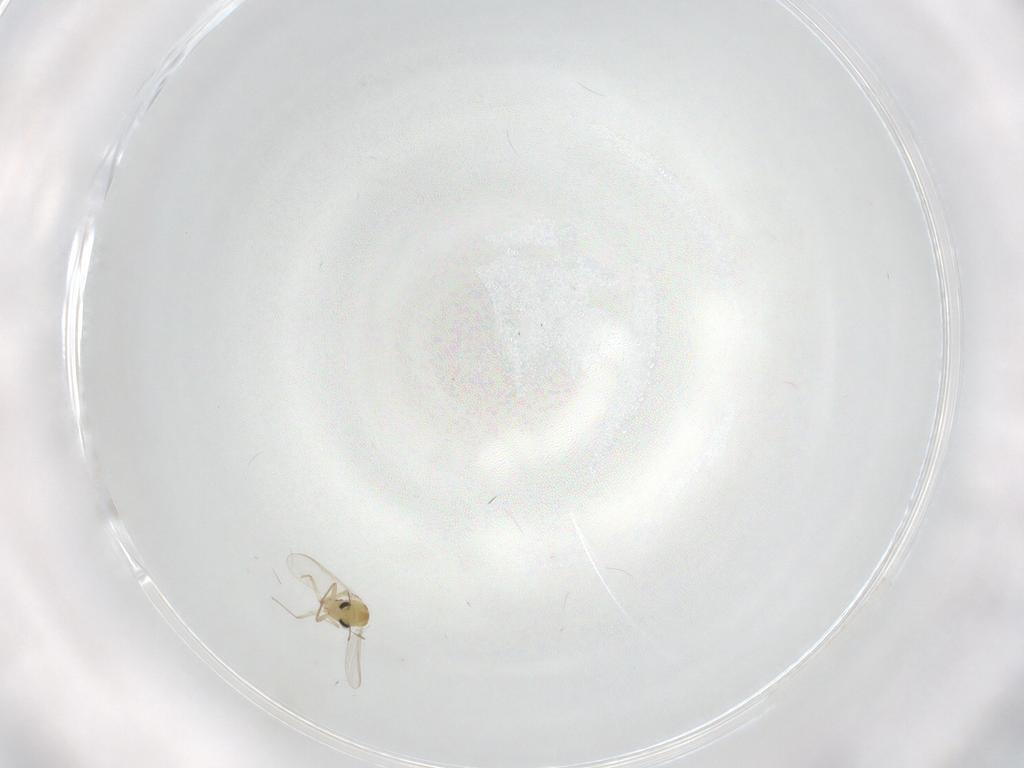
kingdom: Animalia
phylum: Arthropoda
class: Insecta
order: Diptera
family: Chironomidae
